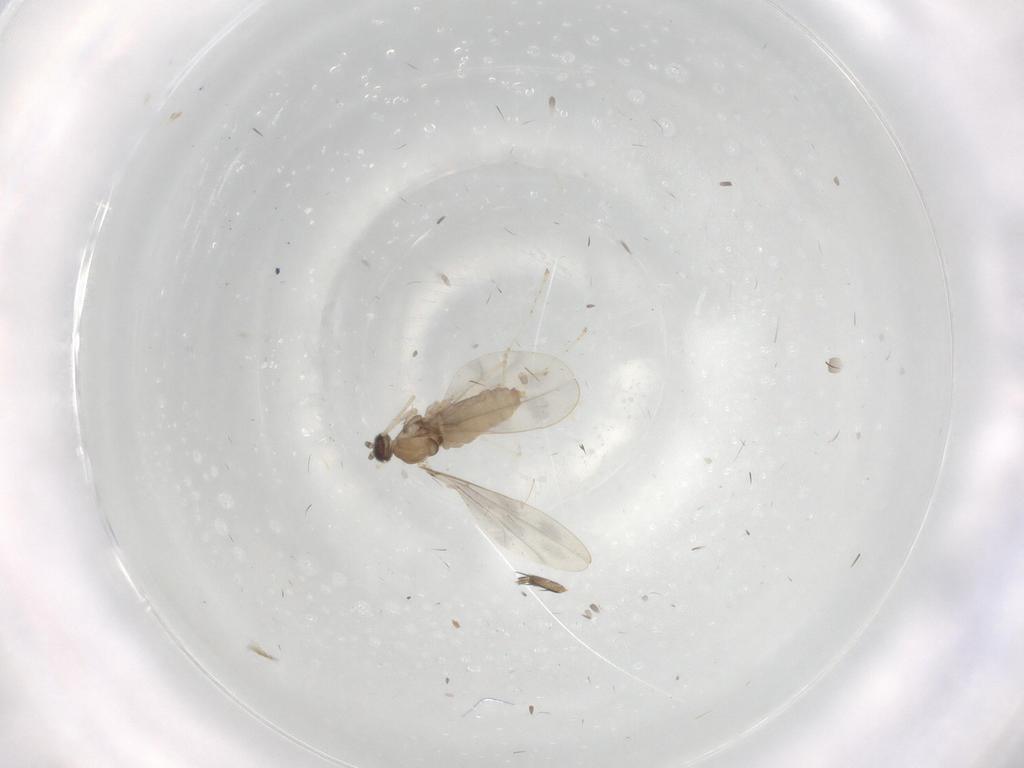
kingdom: Animalia
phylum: Arthropoda
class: Insecta
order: Diptera
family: Cecidomyiidae
